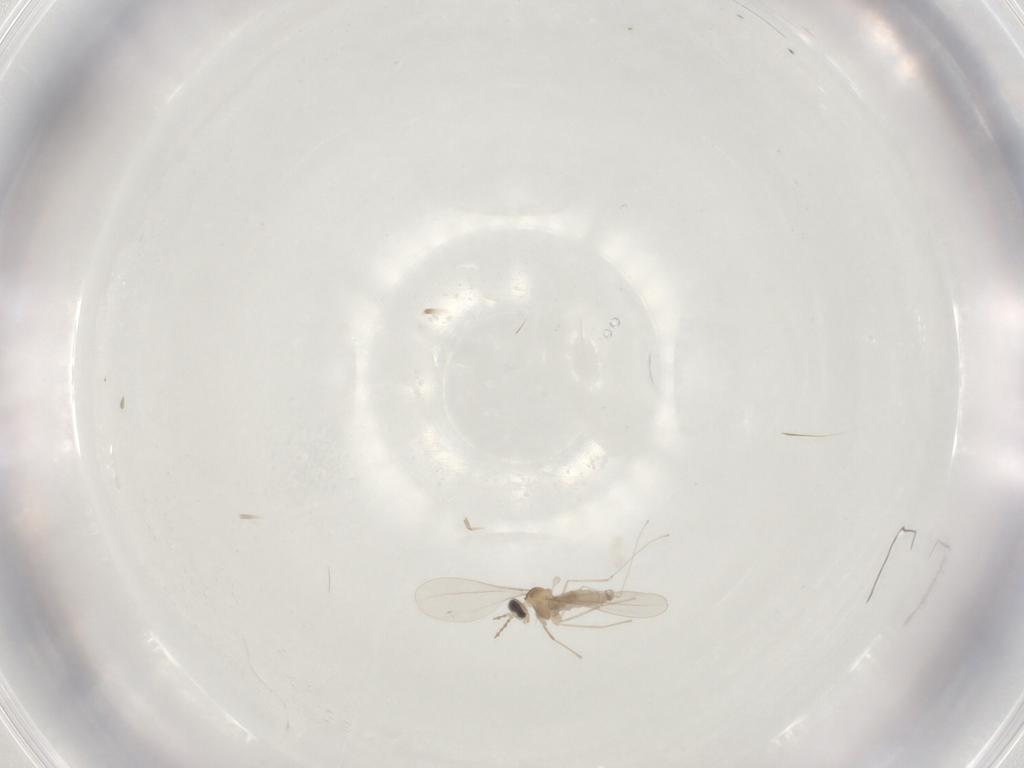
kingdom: Animalia
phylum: Arthropoda
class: Insecta
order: Diptera
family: Cecidomyiidae
